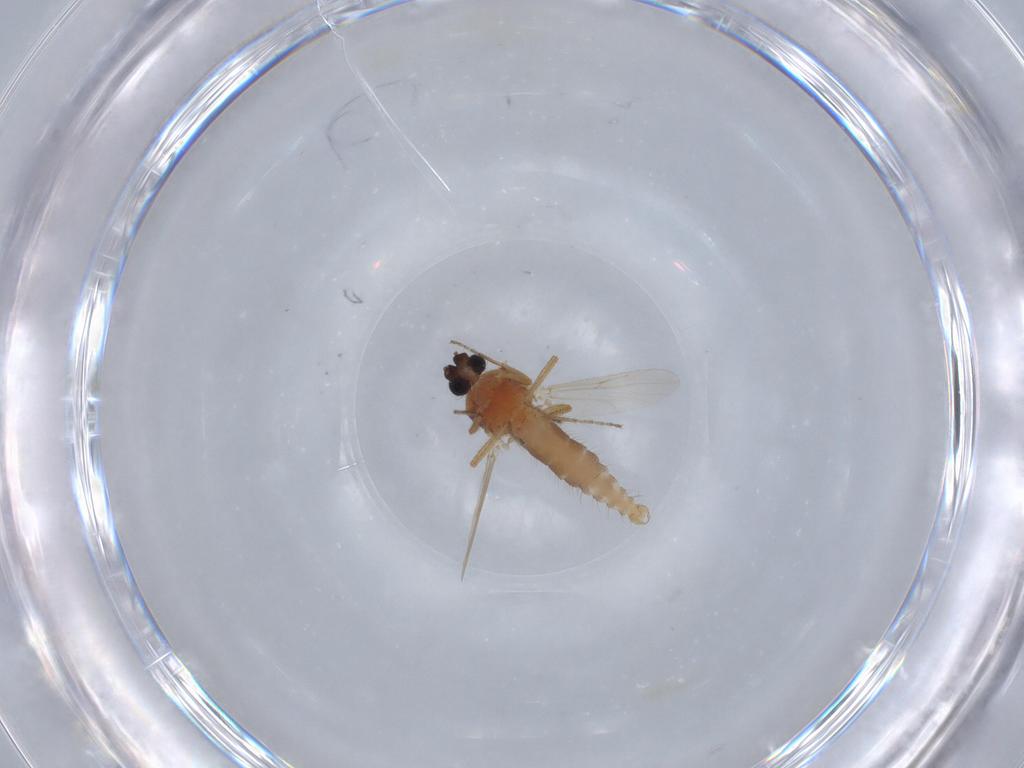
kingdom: Animalia
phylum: Arthropoda
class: Insecta
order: Diptera
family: Ceratopogonidae
